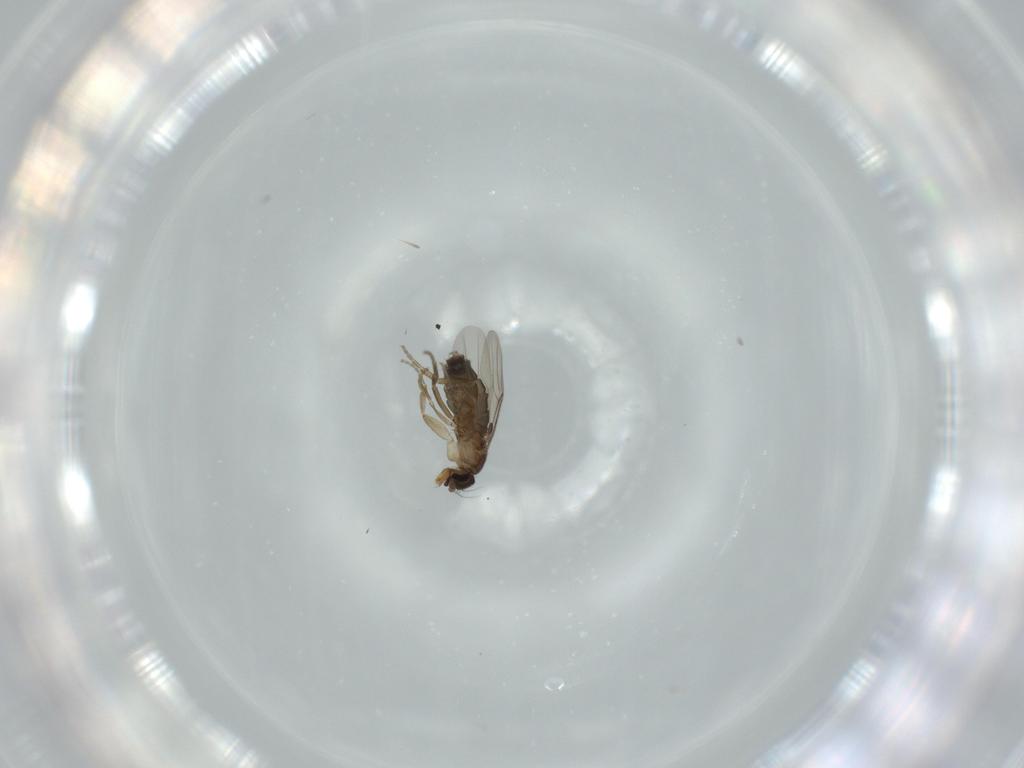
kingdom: Animalia
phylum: Arthropoda
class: Insecta
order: Diptera
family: Phoridae
